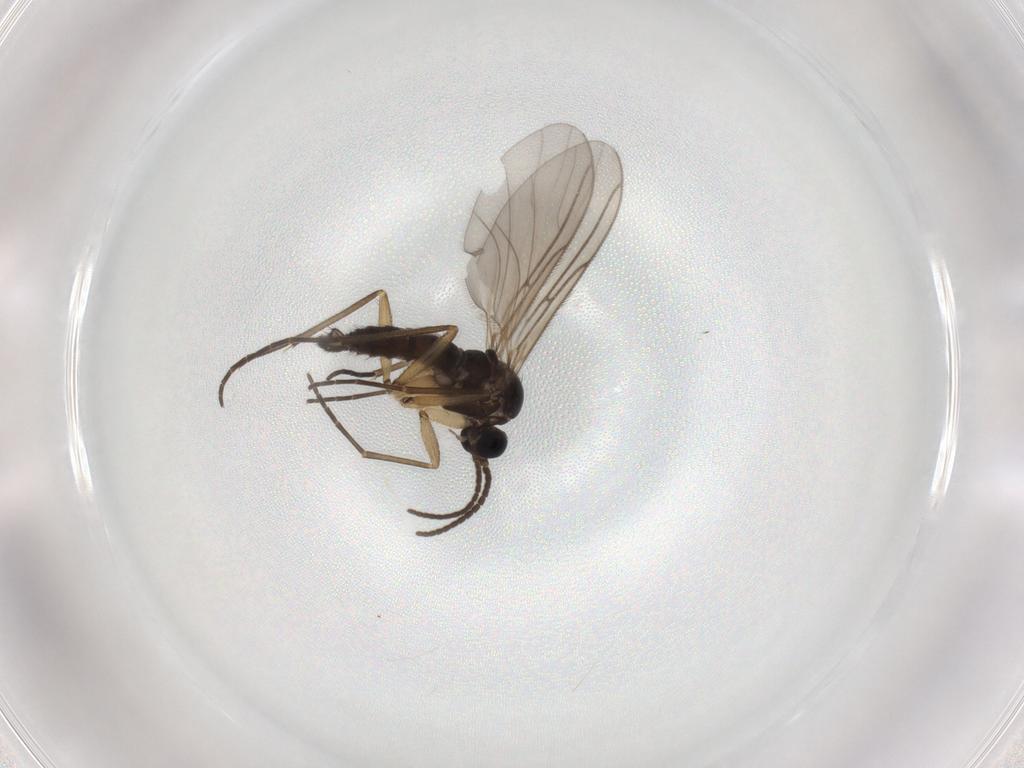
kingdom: Animalia
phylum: Arthropoda
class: Insecta
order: Diptera
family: Sciaridae
